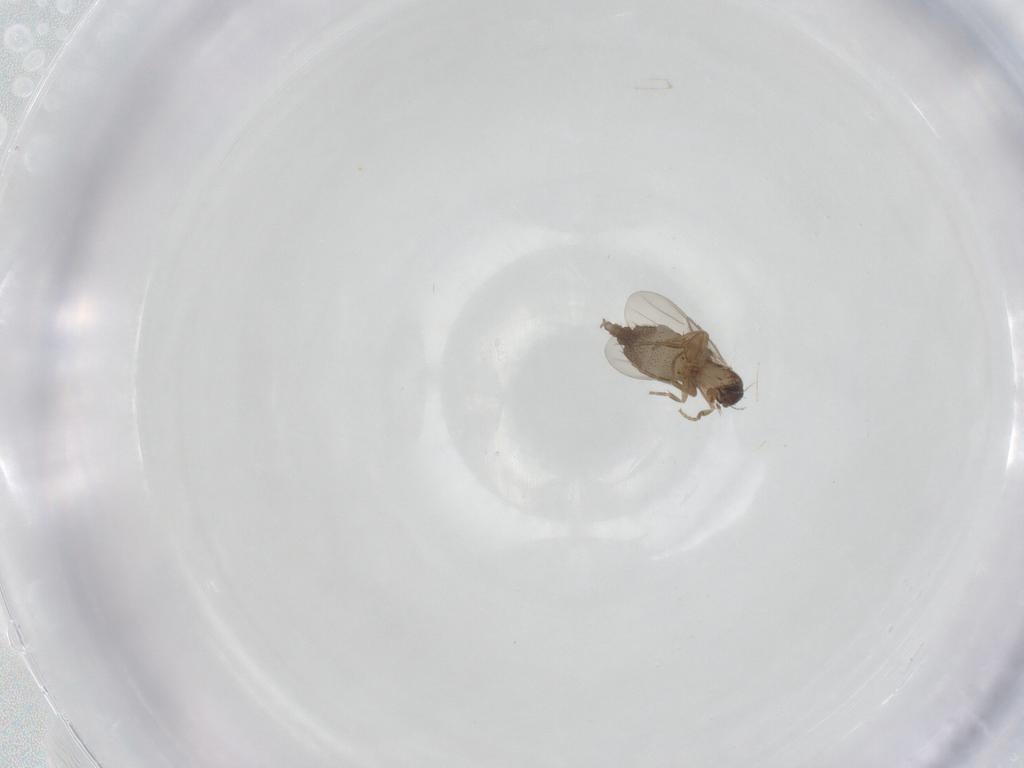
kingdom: Animalia
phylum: Arthropoda
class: Insecta
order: Diptera
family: Phoridae
